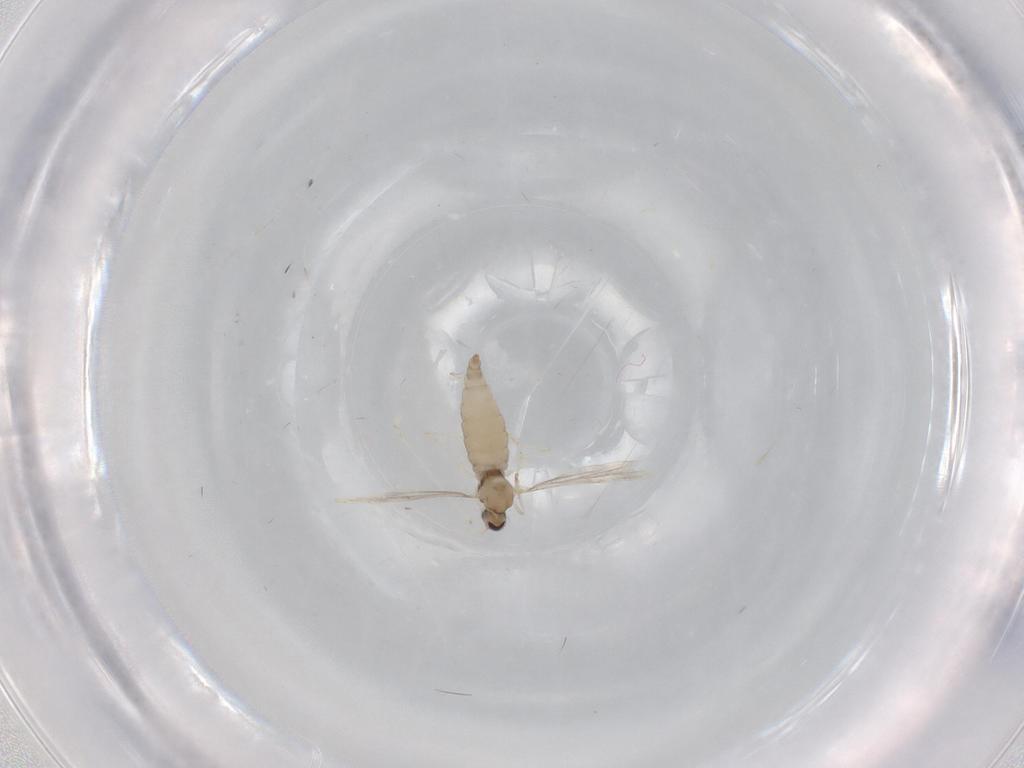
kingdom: Animalia
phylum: Arthropoda
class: Insecta
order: Diptera
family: Cecidomyiidae
